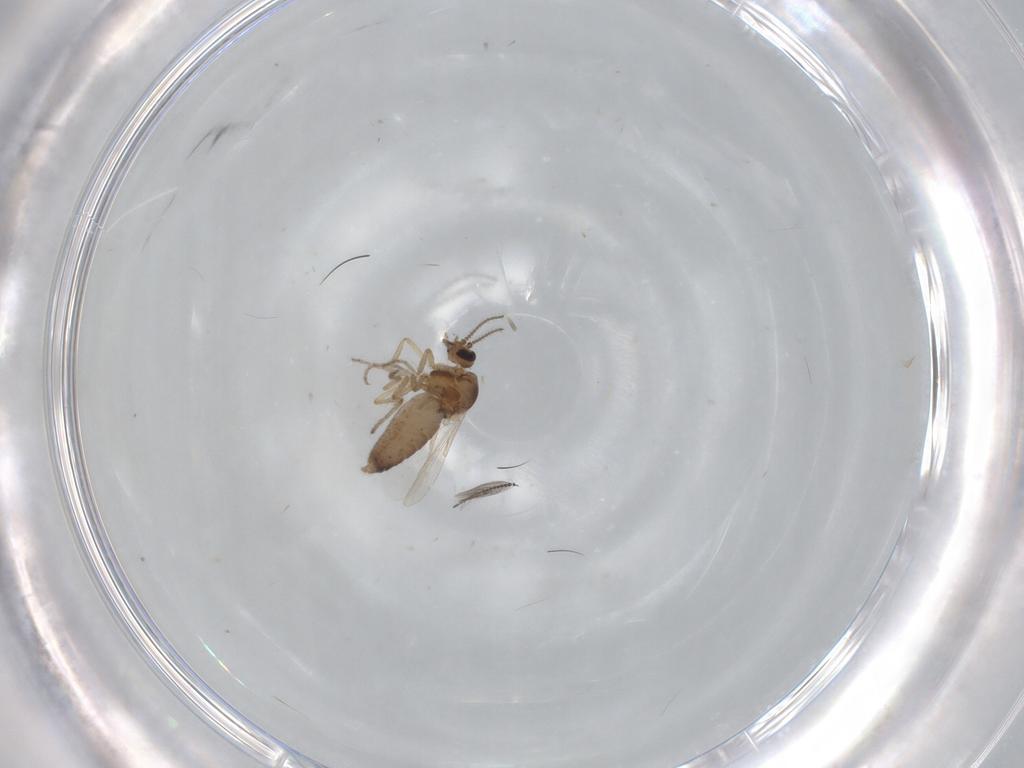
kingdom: Animalia
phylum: Arthropoda
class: Insecta
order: Diptera
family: Ceratopogonidae
